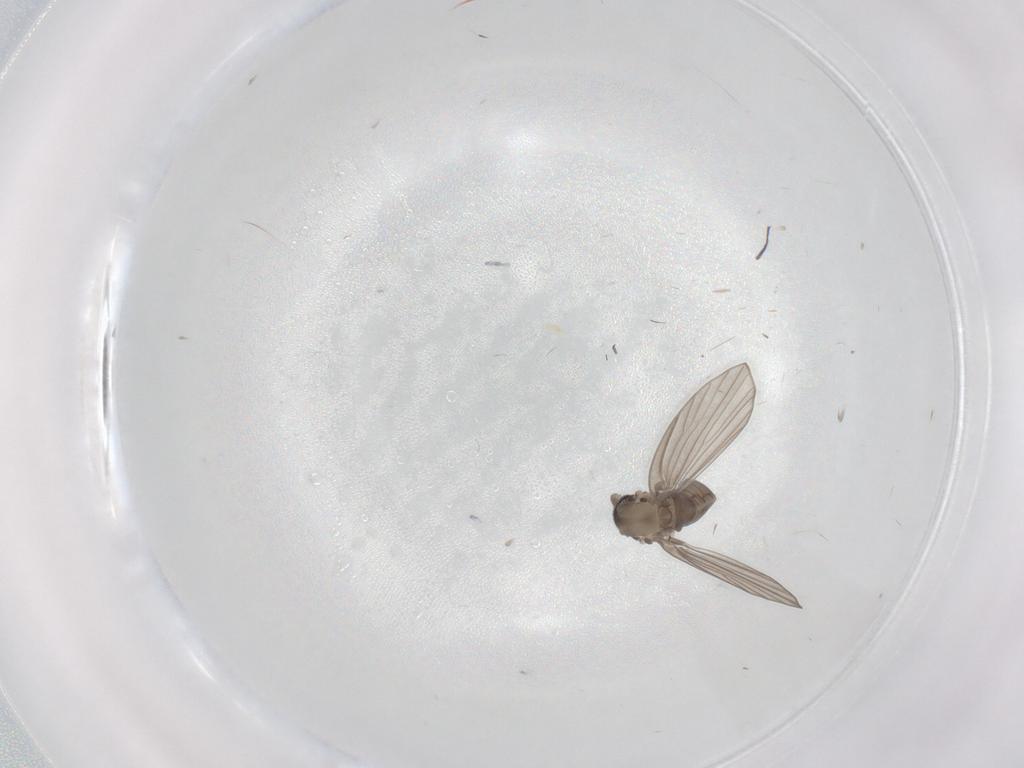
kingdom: Animalia
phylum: Arthropoda
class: Insecta
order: Diptera
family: Psychodidae
